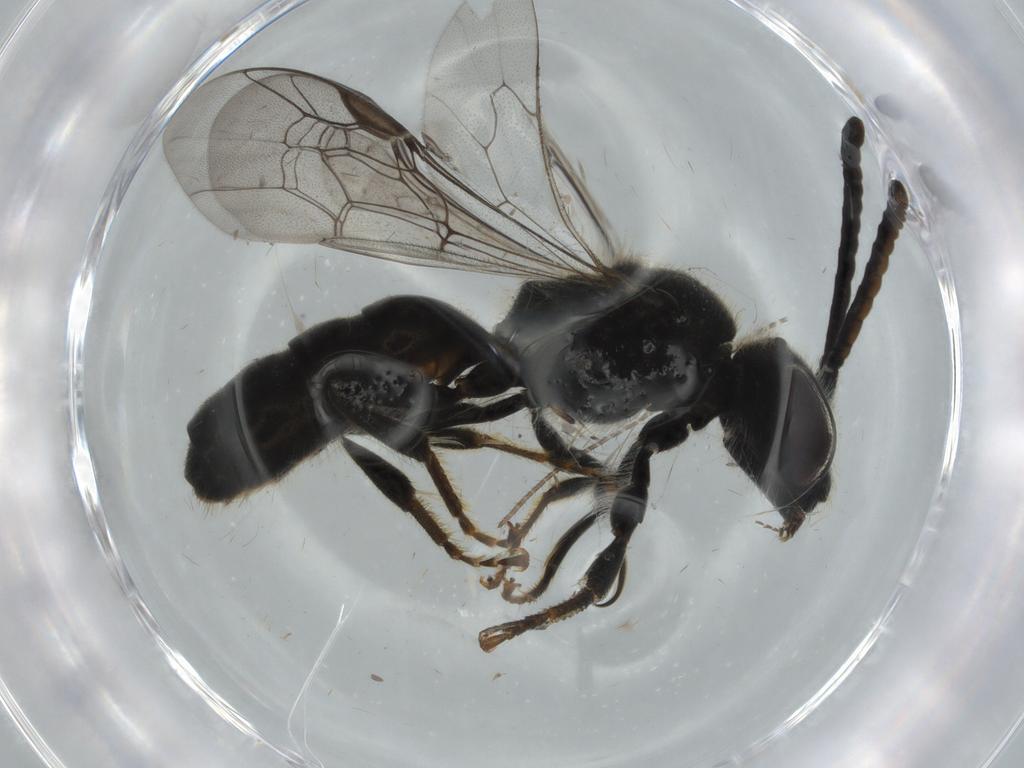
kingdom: Animalia
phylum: Arthropoda
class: Insecta
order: Hymenoptera
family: Halictidae
